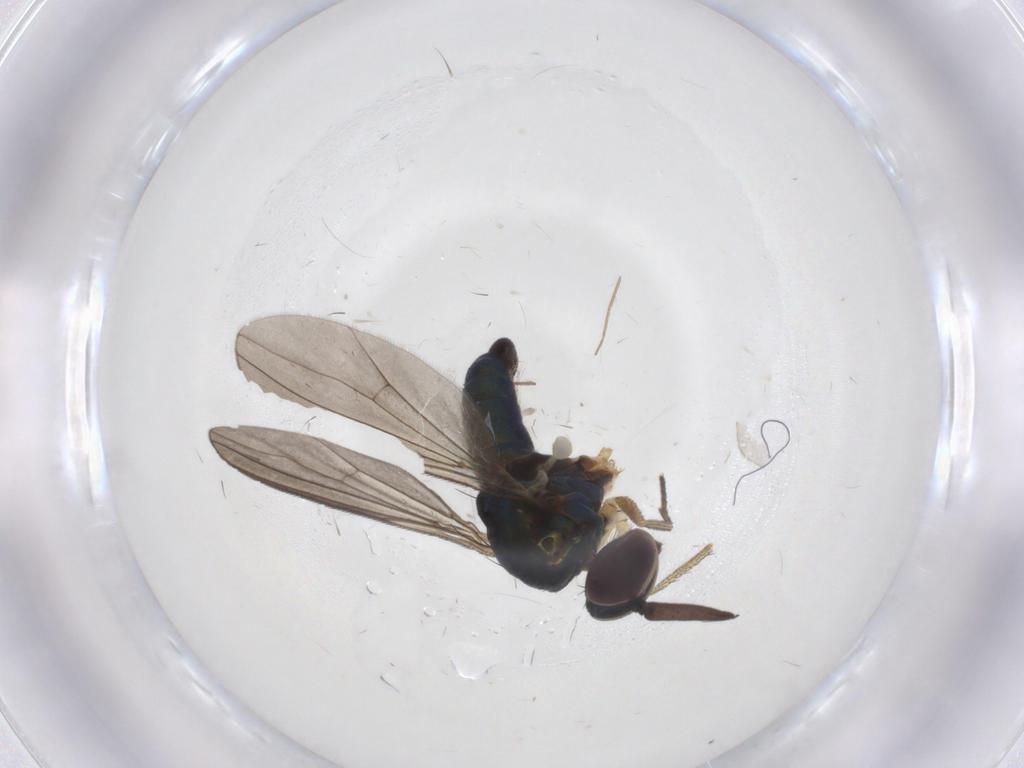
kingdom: Animalia
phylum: Arthropoda
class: Insecta
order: Diptera
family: Dolichopodidae
